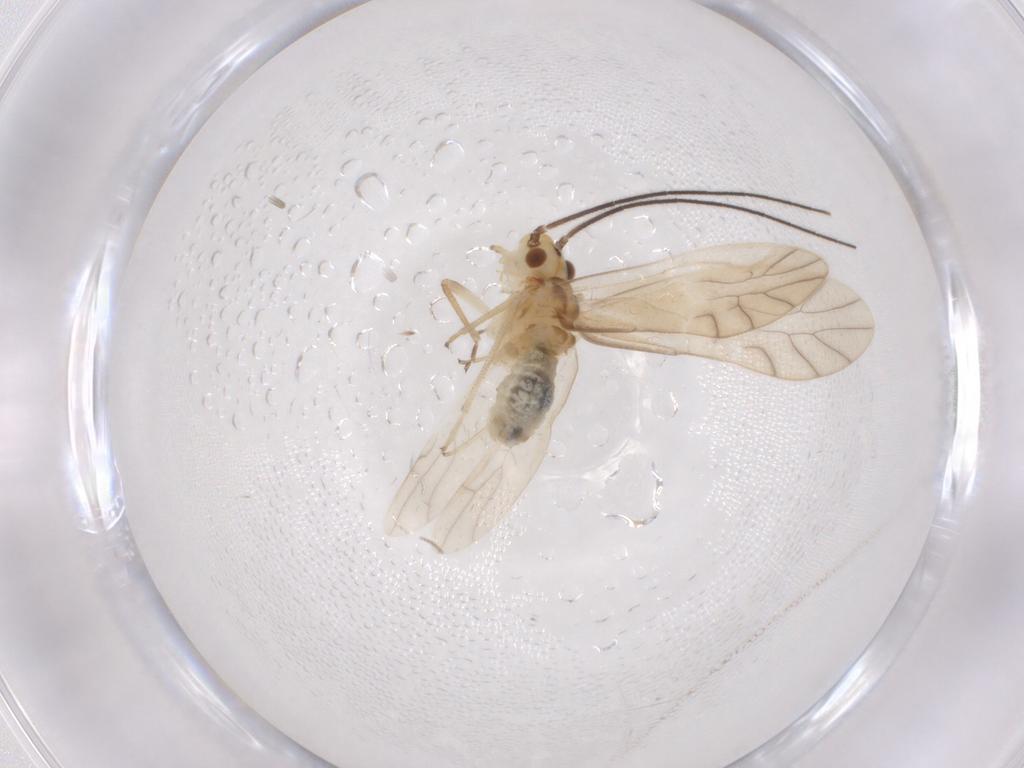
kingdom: Animalia
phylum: Arthropoda
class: Insecta
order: Psocodea
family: Caeciliusidae
